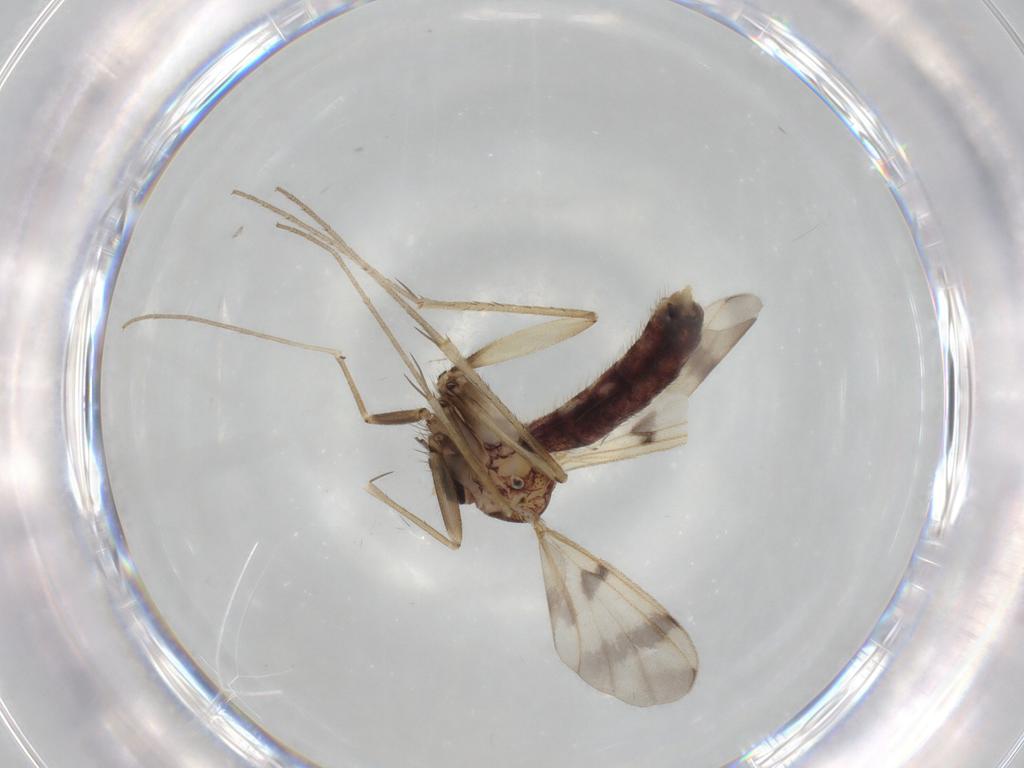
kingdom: Animalia
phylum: Arthropoda
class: Insecta
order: Diptera
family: Mycetophilidae
